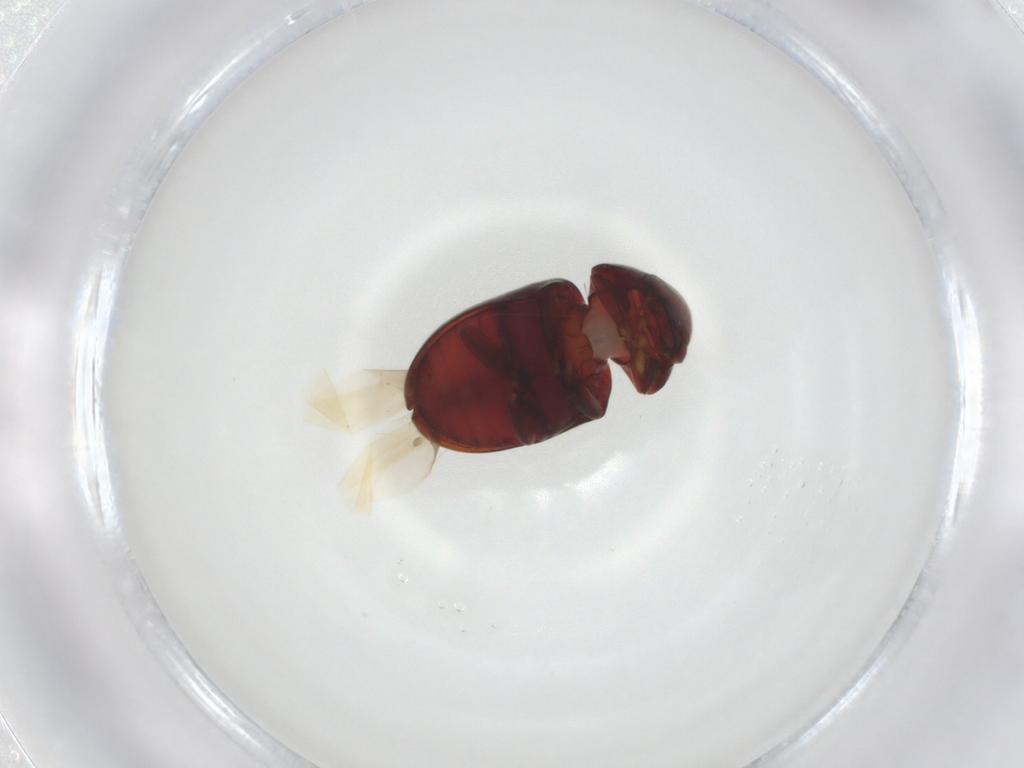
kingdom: Animalia
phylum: Arthropoda
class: Insecta
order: Coleoptera
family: Ptinidae
